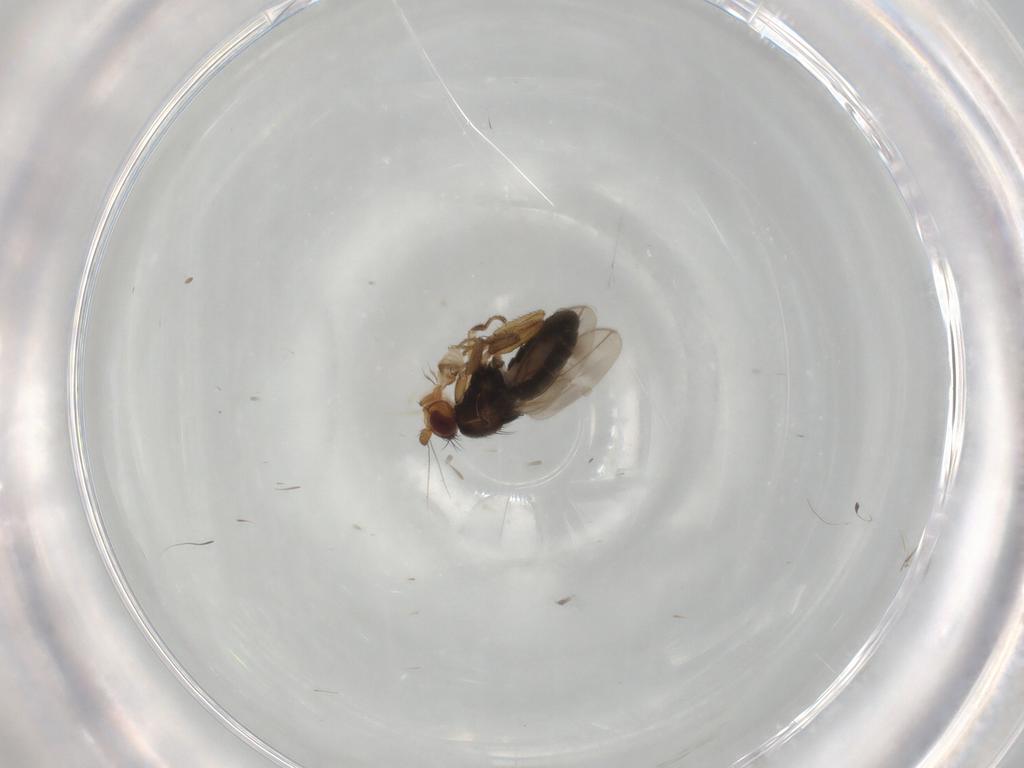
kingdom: Animalia
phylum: Arthropoda
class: Insecta
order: Diptera
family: Sphaeroceridae
